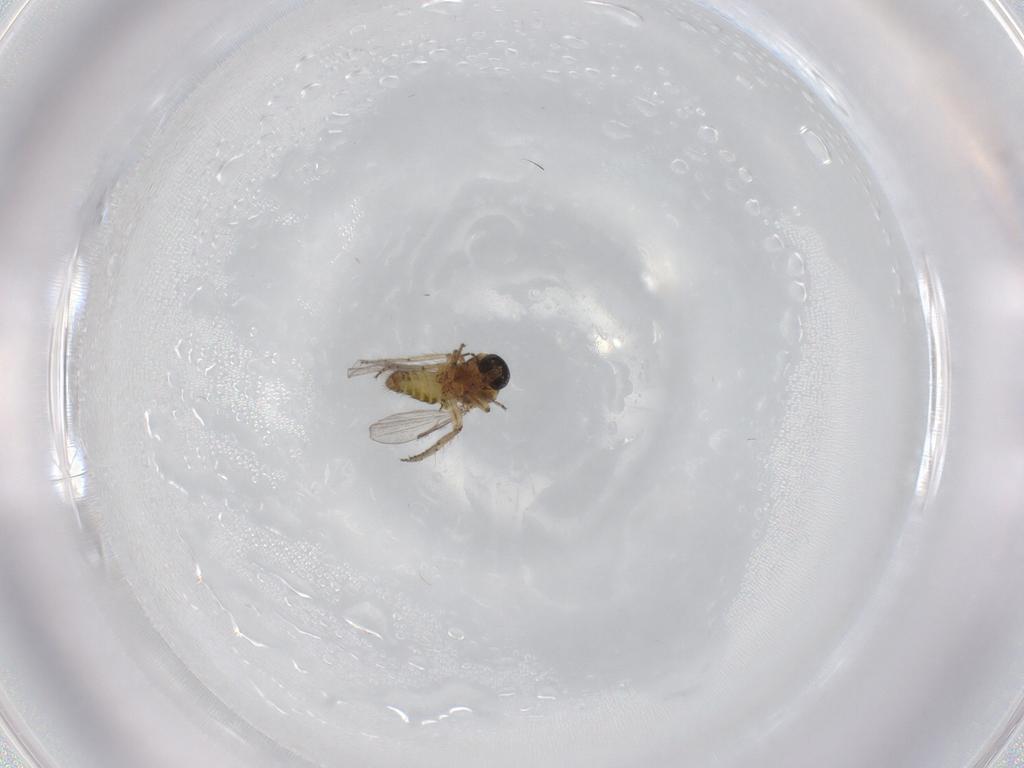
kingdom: Animalia
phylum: Arthropoda
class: Insecta
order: Diptera
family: Ceratopogonidae
